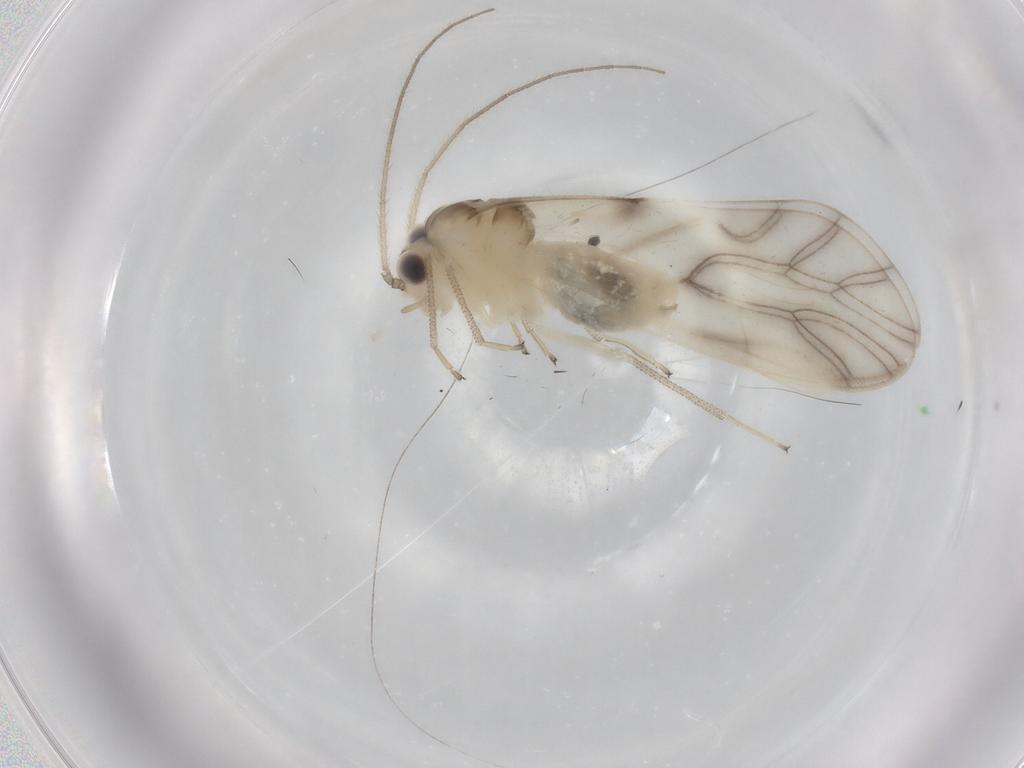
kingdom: Animalia
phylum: Arthropoda
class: Insecta
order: Psocodea
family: Caeciliusidae
